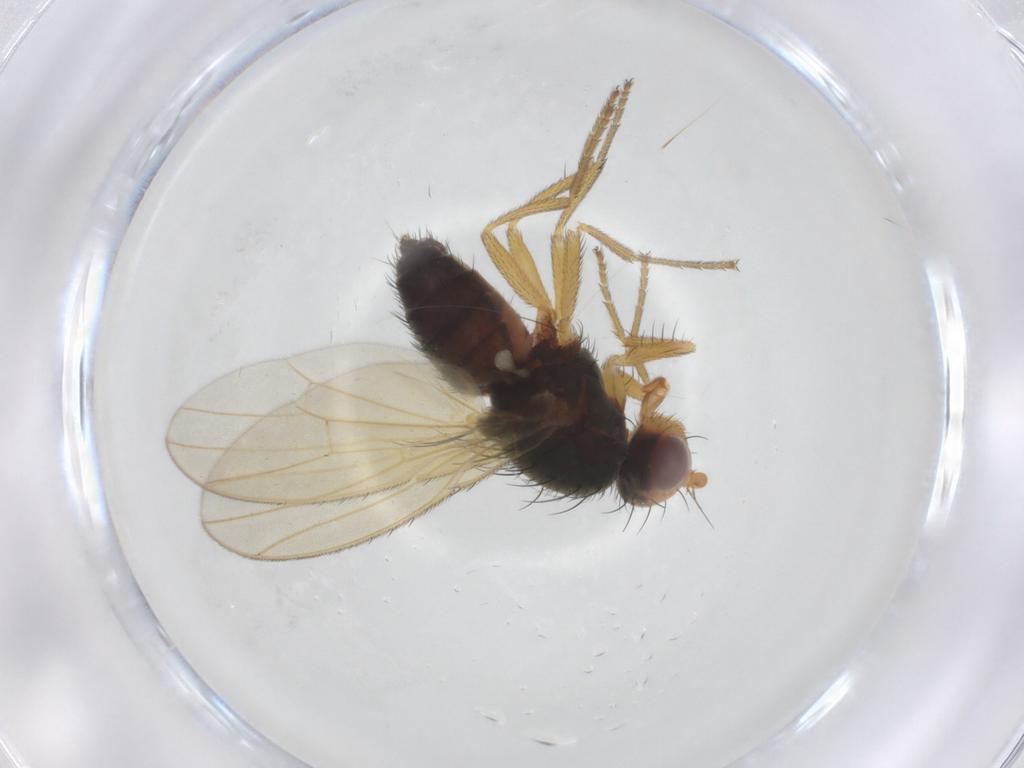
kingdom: Animalia
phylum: Arthropoda
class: Insecta
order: Diptera
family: Heleomyzidae
